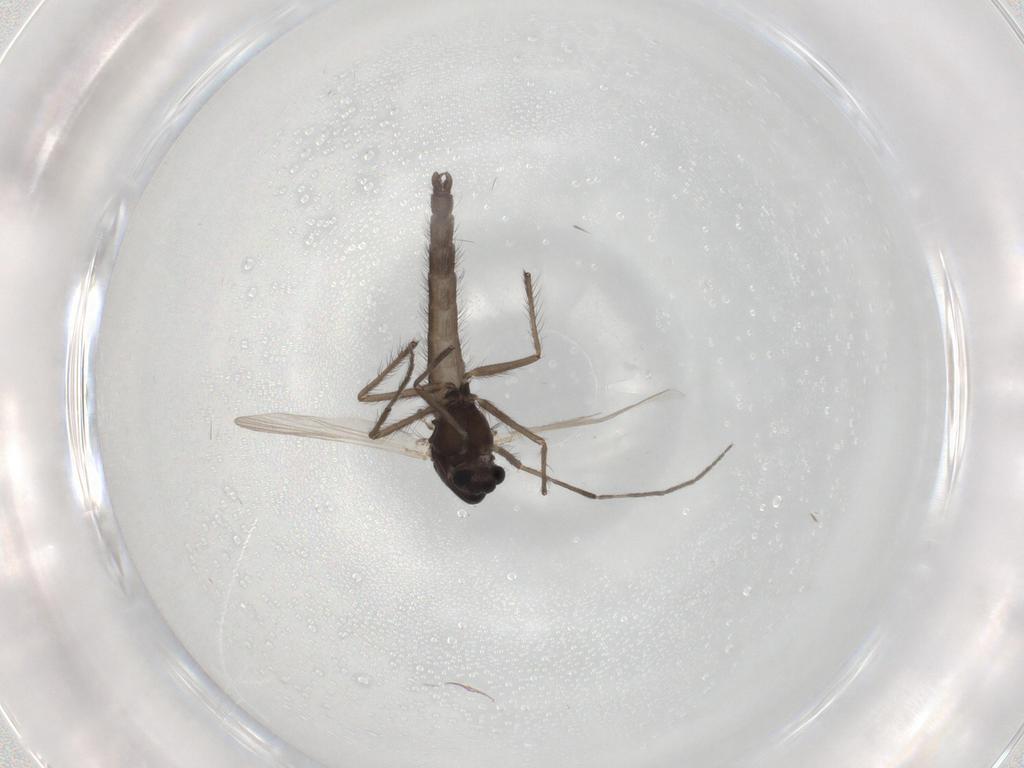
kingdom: Animalia
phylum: Arthropoda
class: Insecta
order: Diptera
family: Chironomidae
